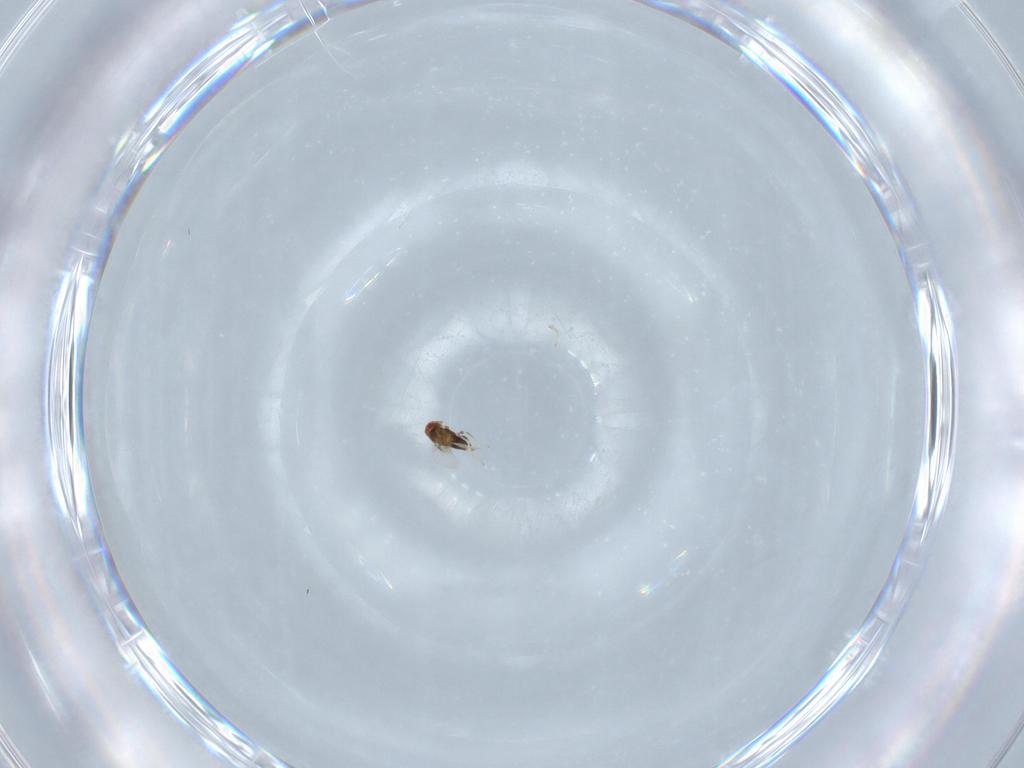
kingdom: Animalia
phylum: Arthropoda
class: Insecta
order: Hymenoptera
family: Trichogrammatidae
